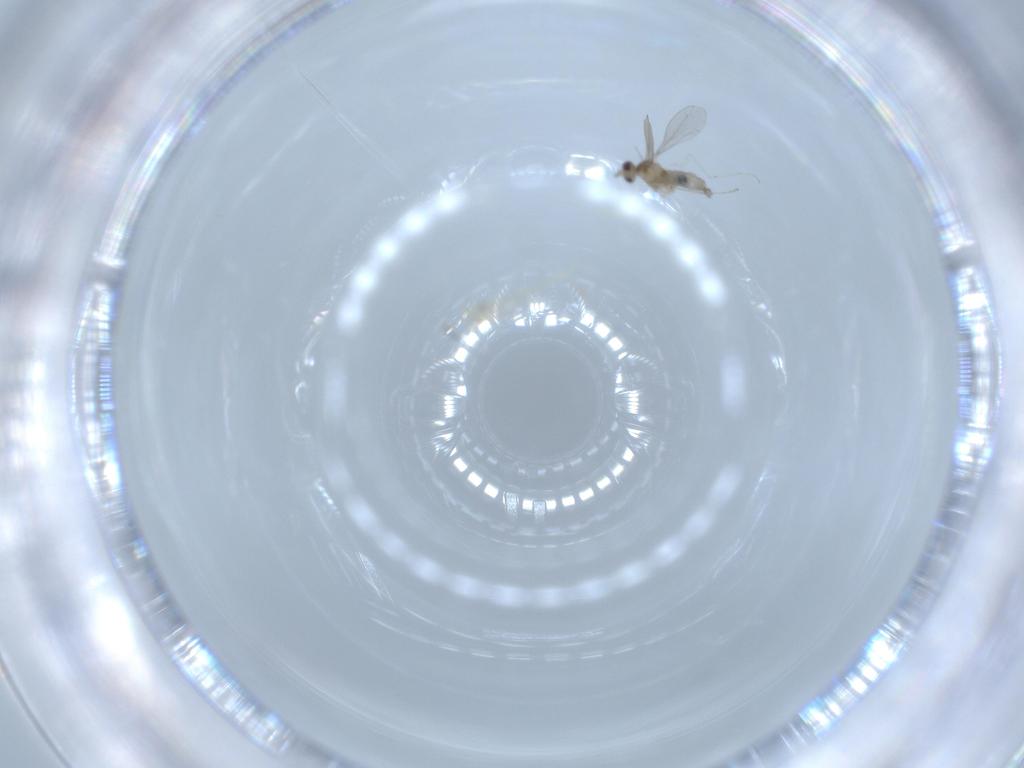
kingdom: Animalia
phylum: Arthropoda
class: Insecta
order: Diptera
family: Cecidomyiidae
